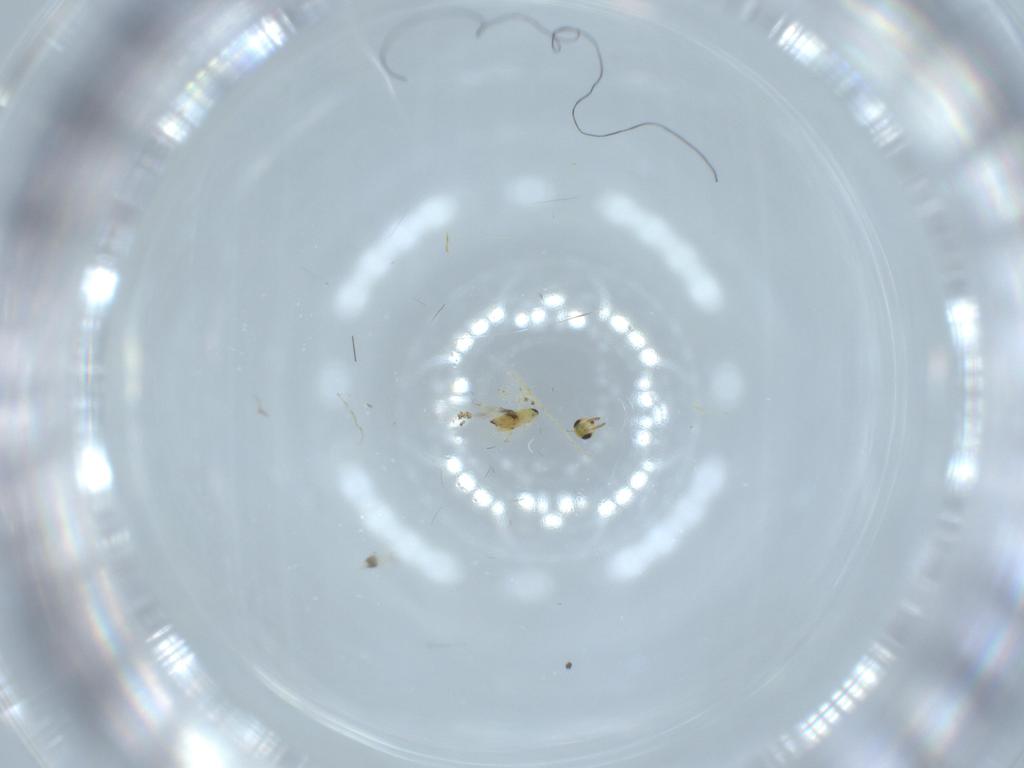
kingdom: Animalia
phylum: Arthropoda
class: Insecta
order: Hymenoptera
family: Signiphoridae
